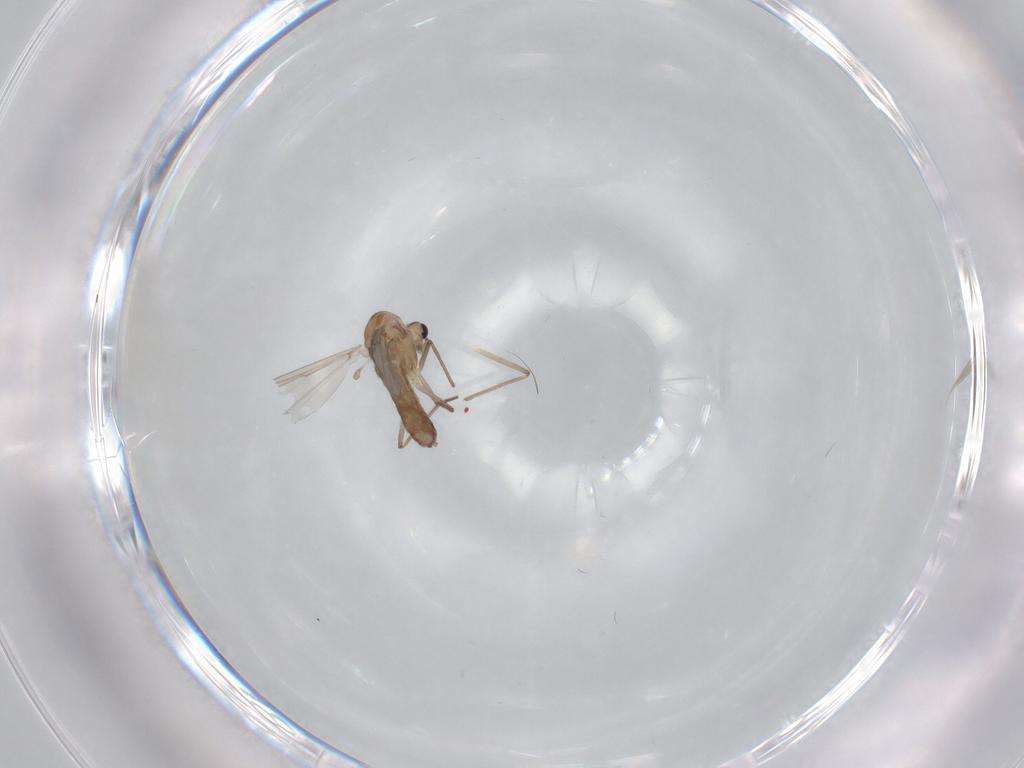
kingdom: Animalia
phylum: Arthropoda
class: Insecta
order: Diptera
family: Chironomidae
